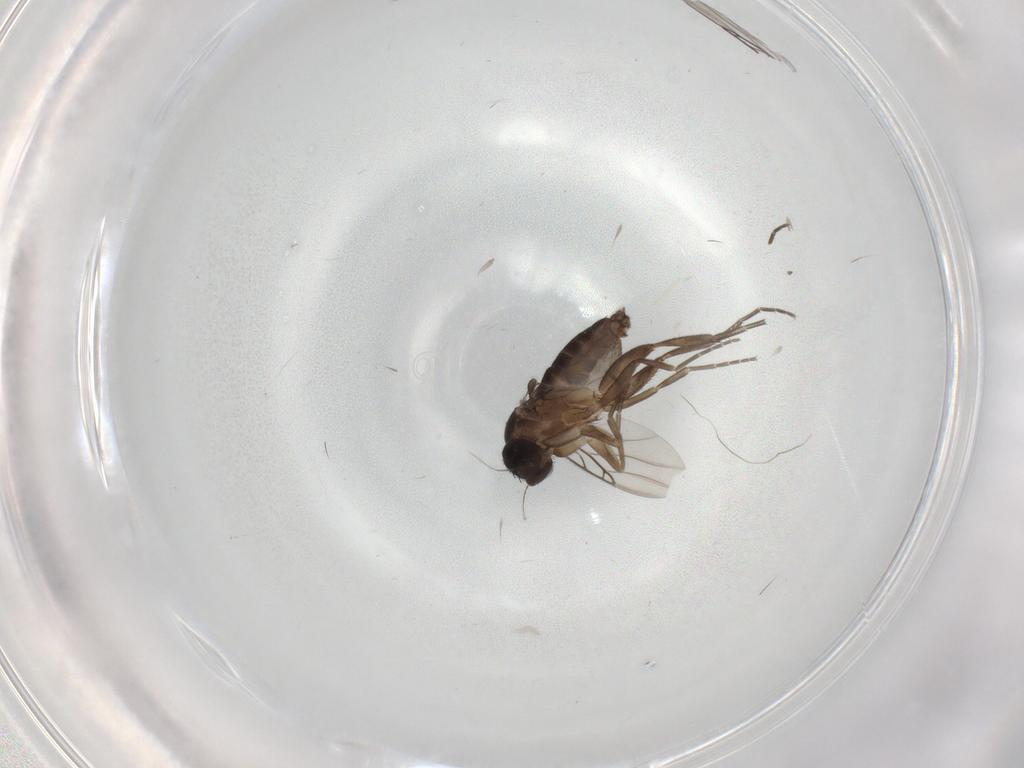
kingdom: Animalia
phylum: Arthropoda
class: Insecta
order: Diptera
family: Phoridae
